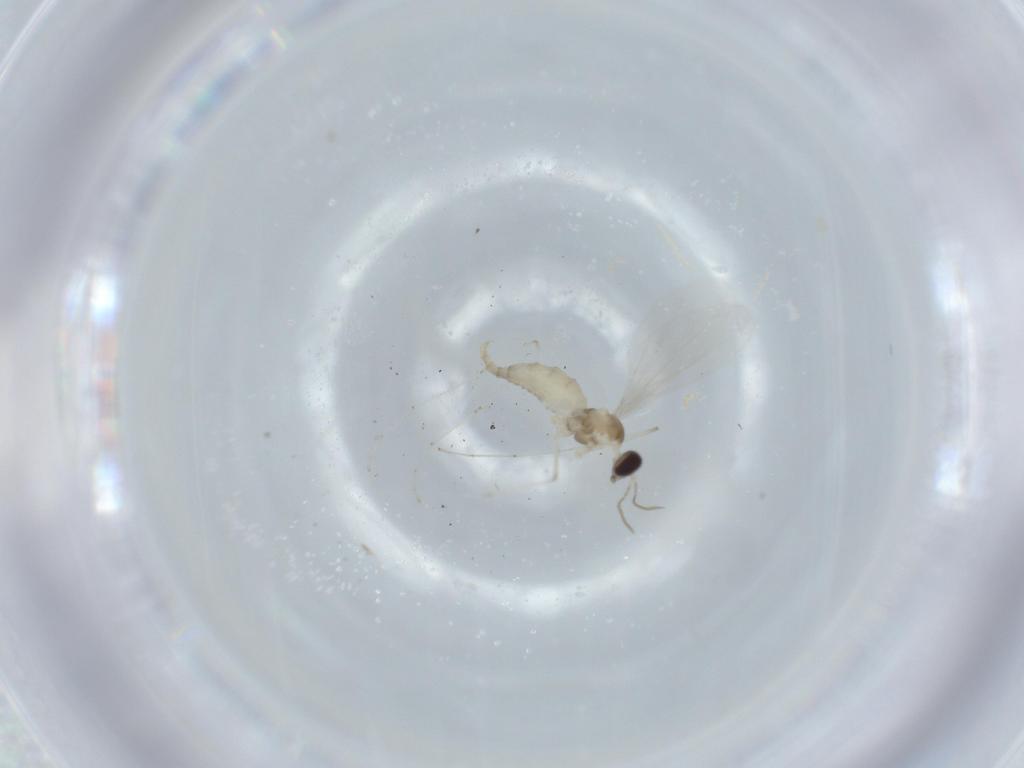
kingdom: Animalia
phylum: Arthropoda
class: Insecta
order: Diptera
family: Cecidomyiidae
